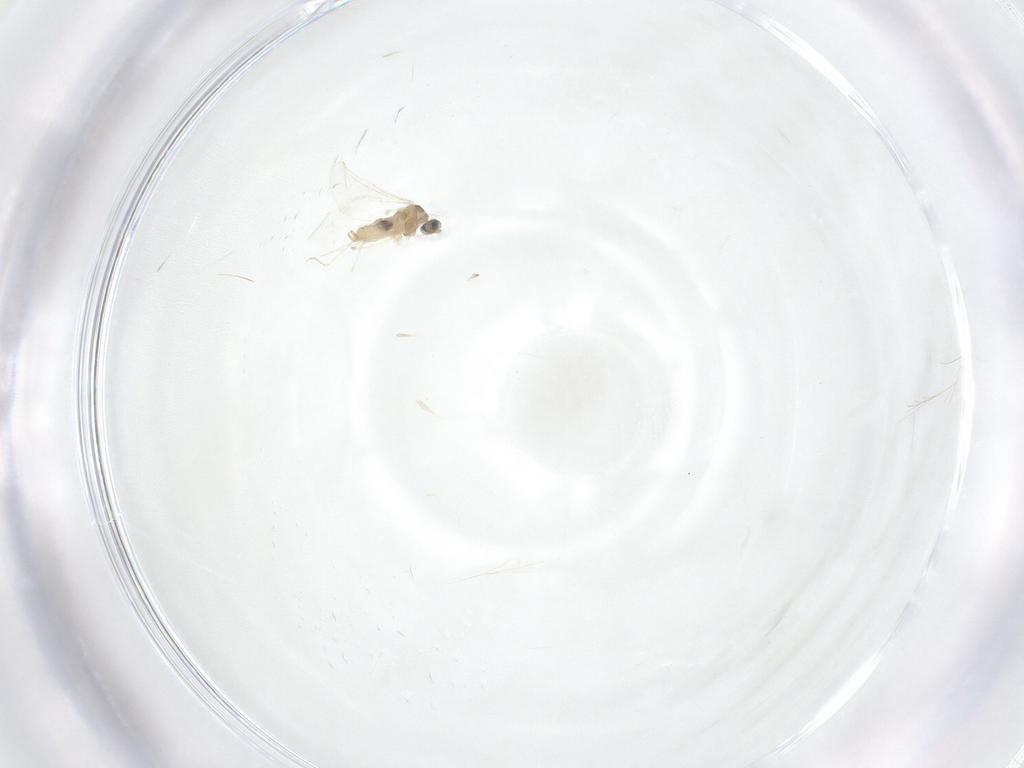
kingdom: Animalia
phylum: Arthropoda
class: Insecta
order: Diptera
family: Cecidomyiidae
